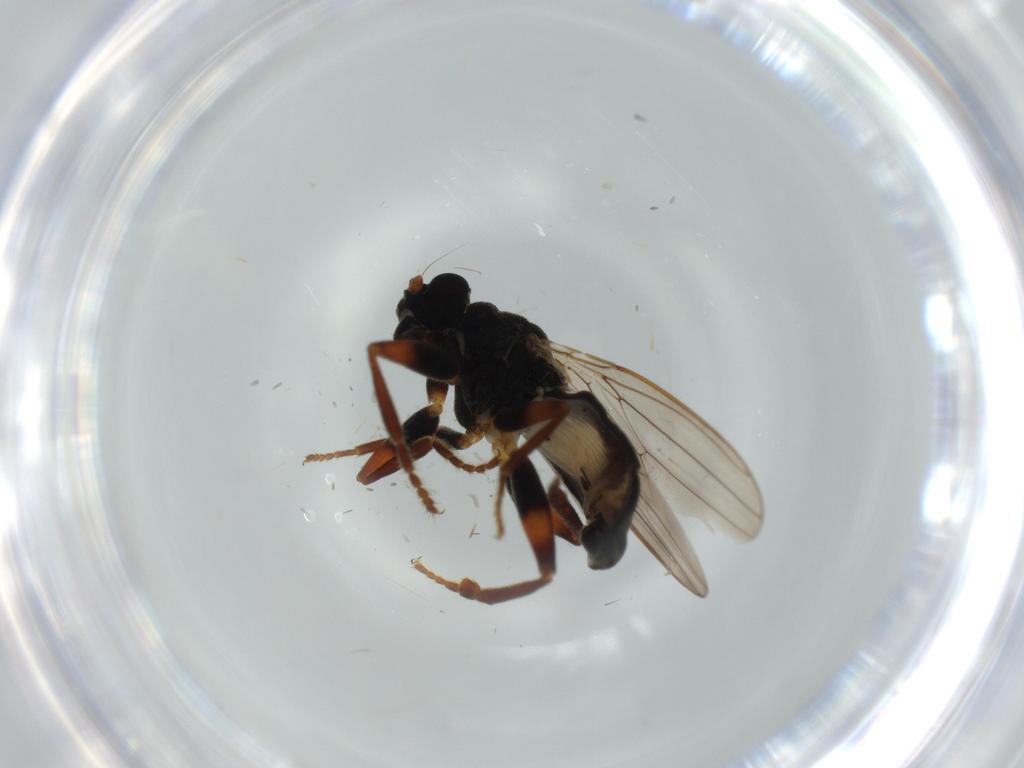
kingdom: Animalia
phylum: Arthropoda
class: Insecta
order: Diptera
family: Sphaeroceridae
